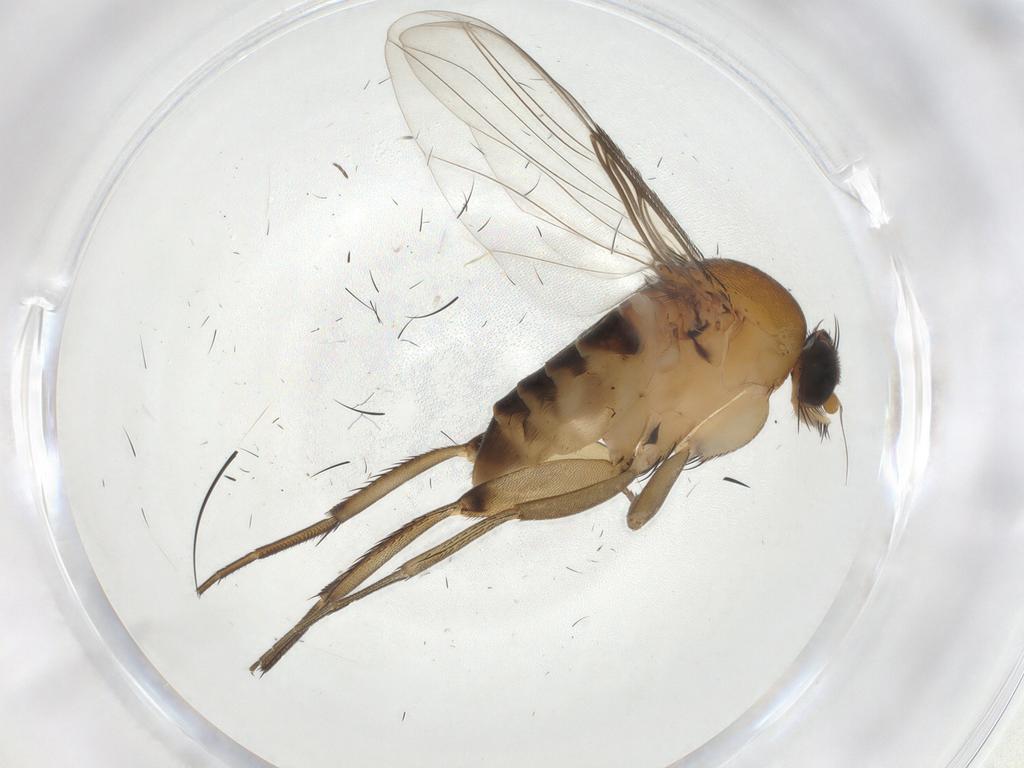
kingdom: Animalia
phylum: Arthropoda
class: Insecta
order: Diptera
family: Phoridae
